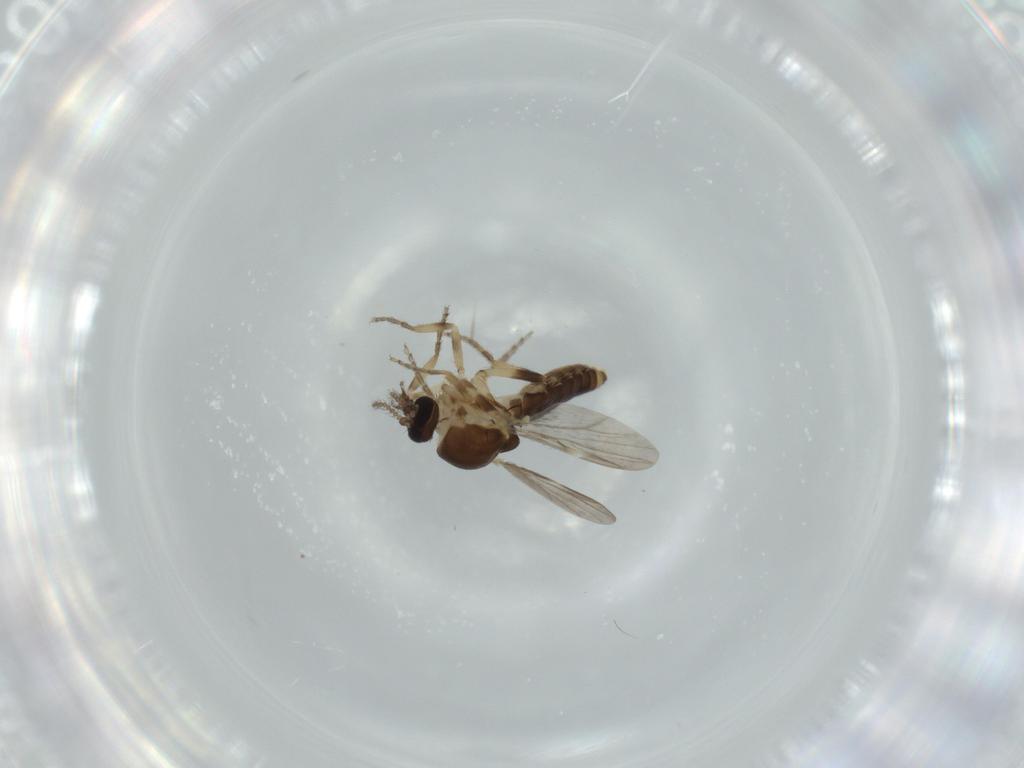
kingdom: Animalia
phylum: Arthropoda
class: Insecta
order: Diptera
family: Ceratopogonidae
